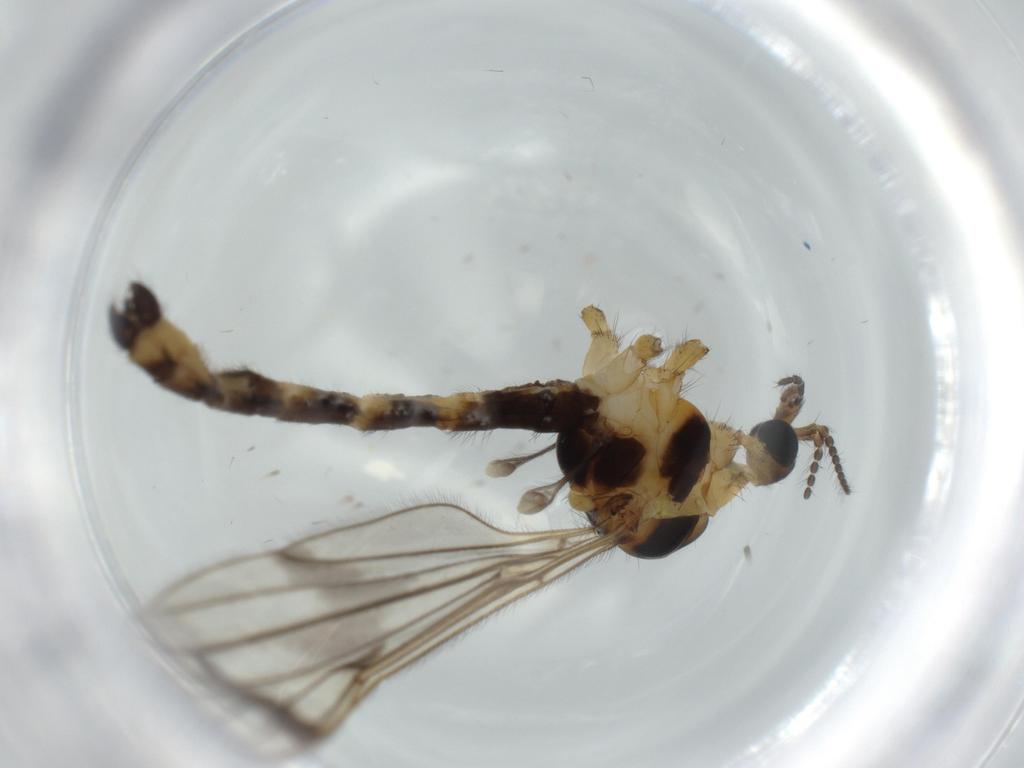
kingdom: Animalia
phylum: Arthropoda
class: Insecta
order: Diptera
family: Limoniidae
